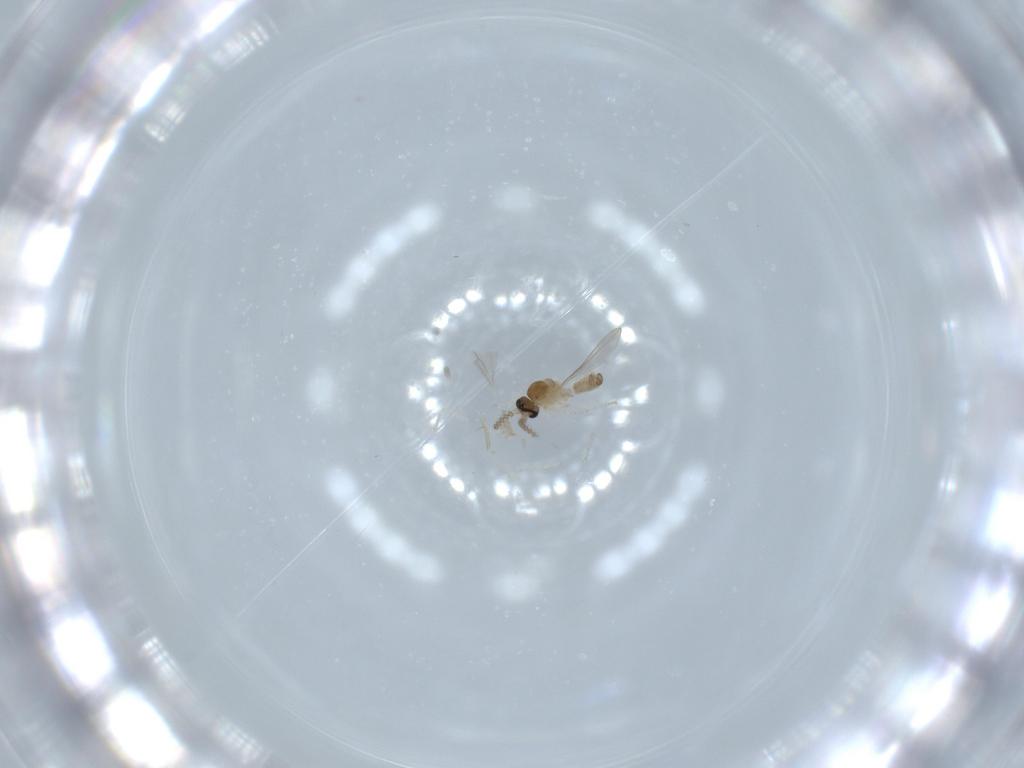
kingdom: Animalia
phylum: Arthropoda
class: Insecta
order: Diptera
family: Cecidomyiidae
